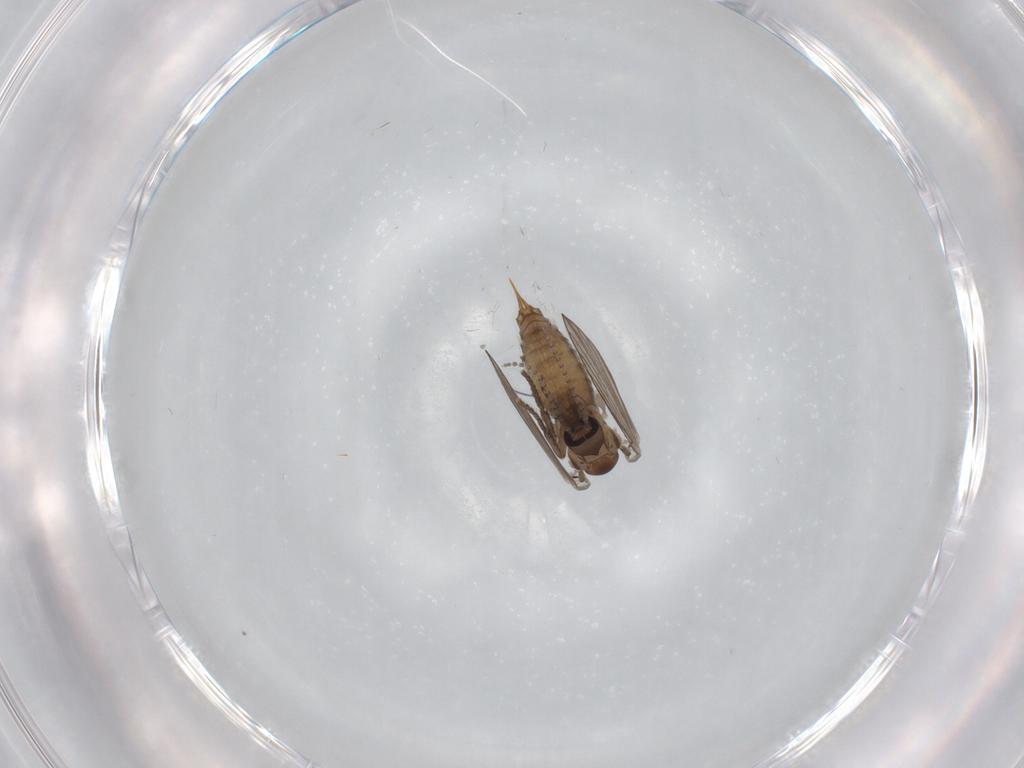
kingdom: Animalia
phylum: Arthropoda
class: Insecta
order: Diptera
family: Psychodidae
